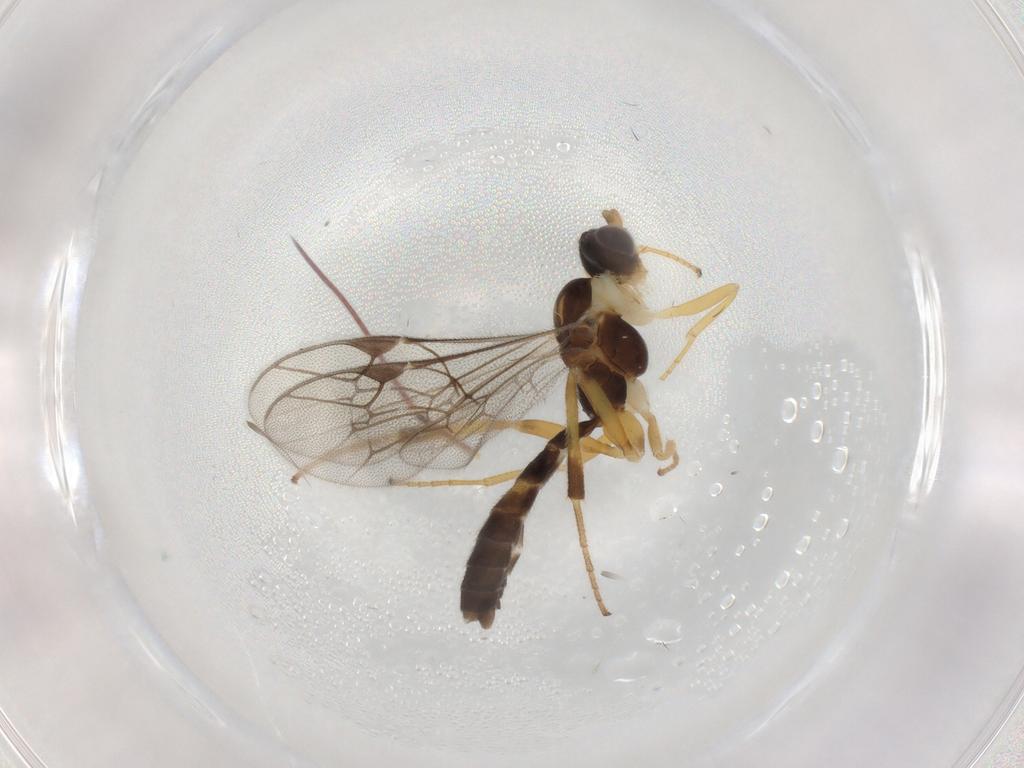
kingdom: Animalia
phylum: Arthropoda
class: Insecta
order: Hymenoptera
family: Ichneumonidae
